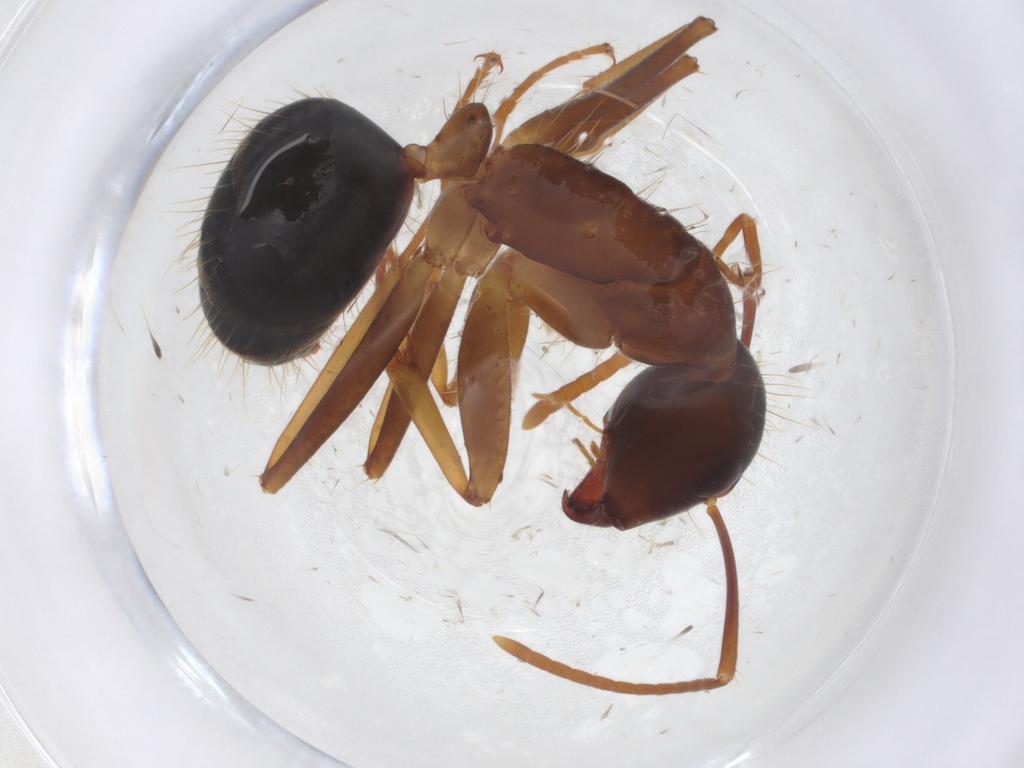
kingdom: Animalia
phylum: Arthropoda
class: Insecta
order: Hymenoptera
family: Formicidae
